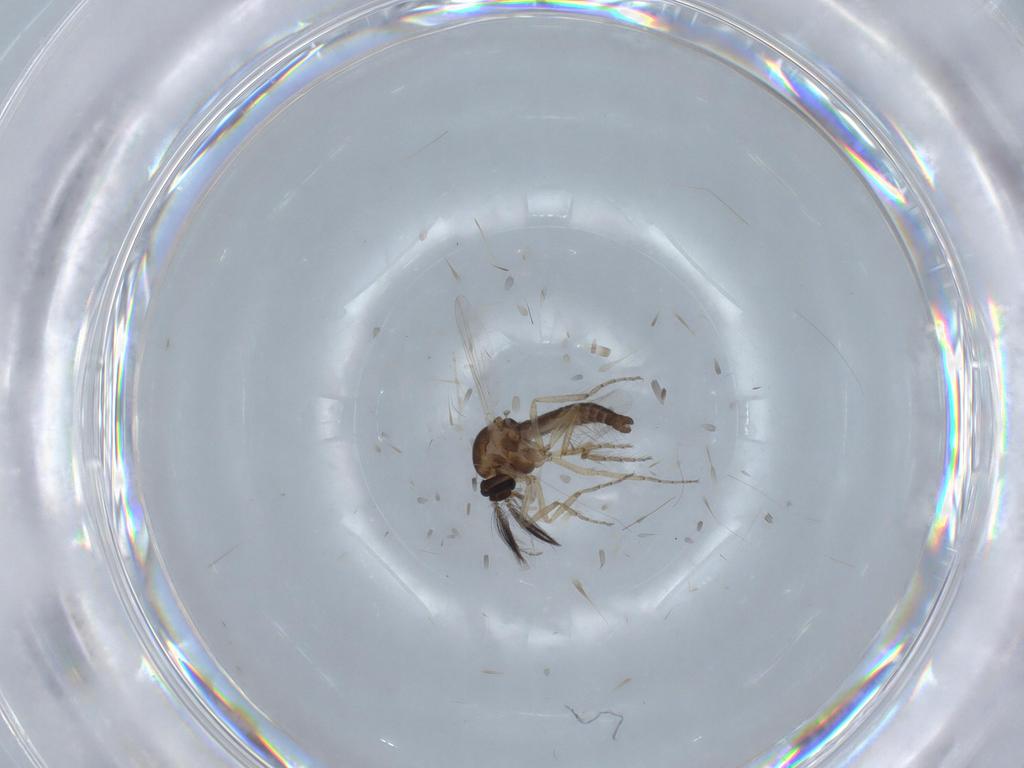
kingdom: Animalia
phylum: Arthropoda
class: Insecta
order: Diptera
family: Ceratopogonidae
